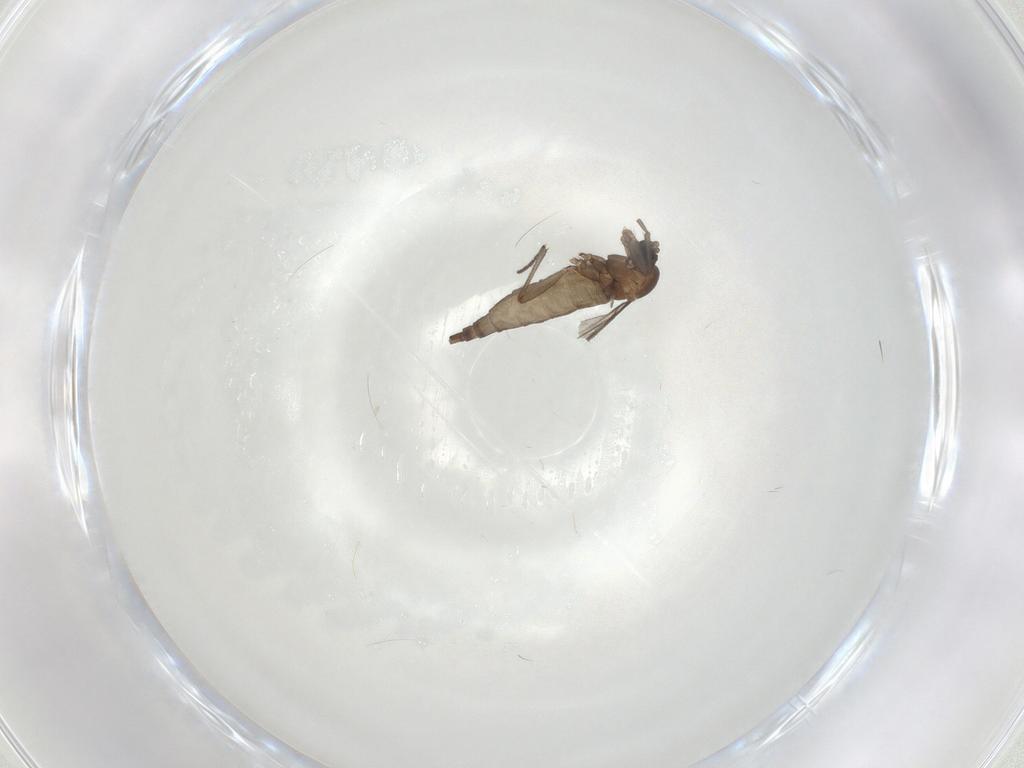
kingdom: Animalia
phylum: Arthropoda
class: Insecta
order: Diptera
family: Sciaridae
